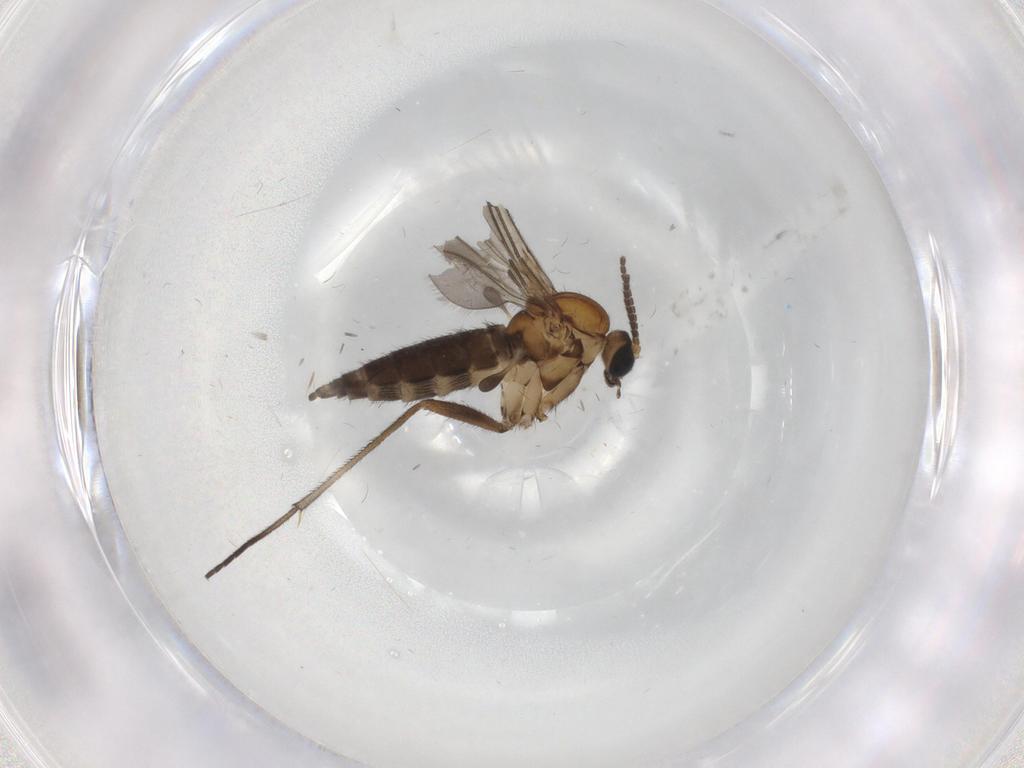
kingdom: Animalia
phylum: Arthropoda
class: Insecta
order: Diptera
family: Sciaridae
